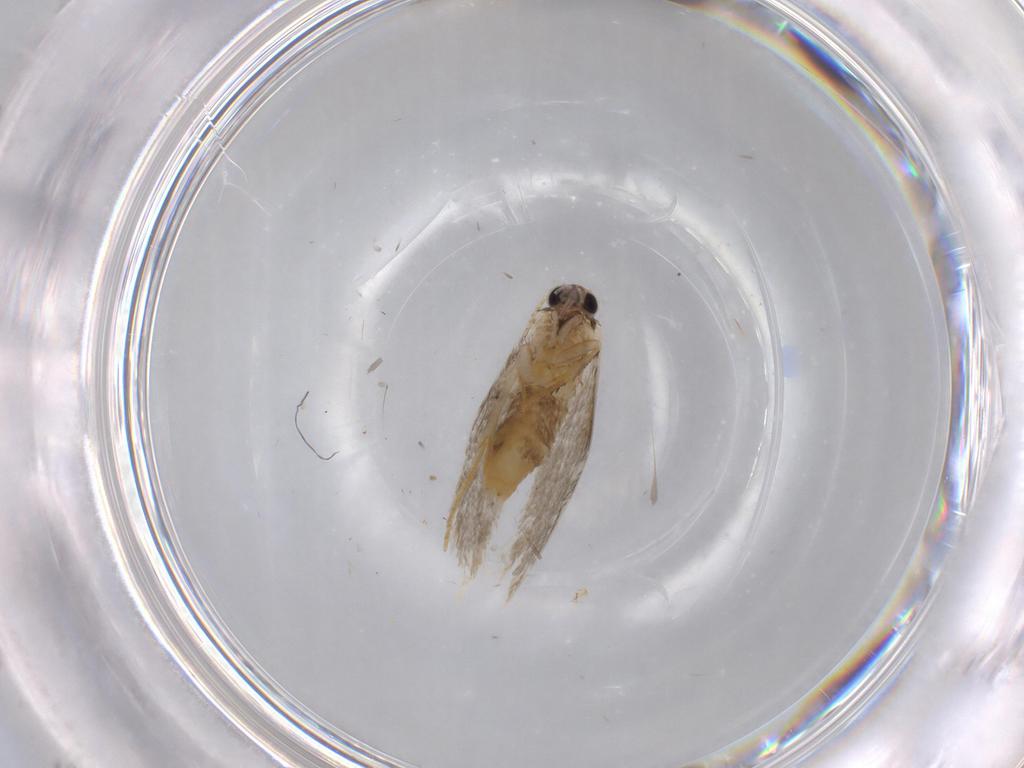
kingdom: Animalia
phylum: Arthropoda
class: Insecta
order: Lepidoptera
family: Nepticulidae
